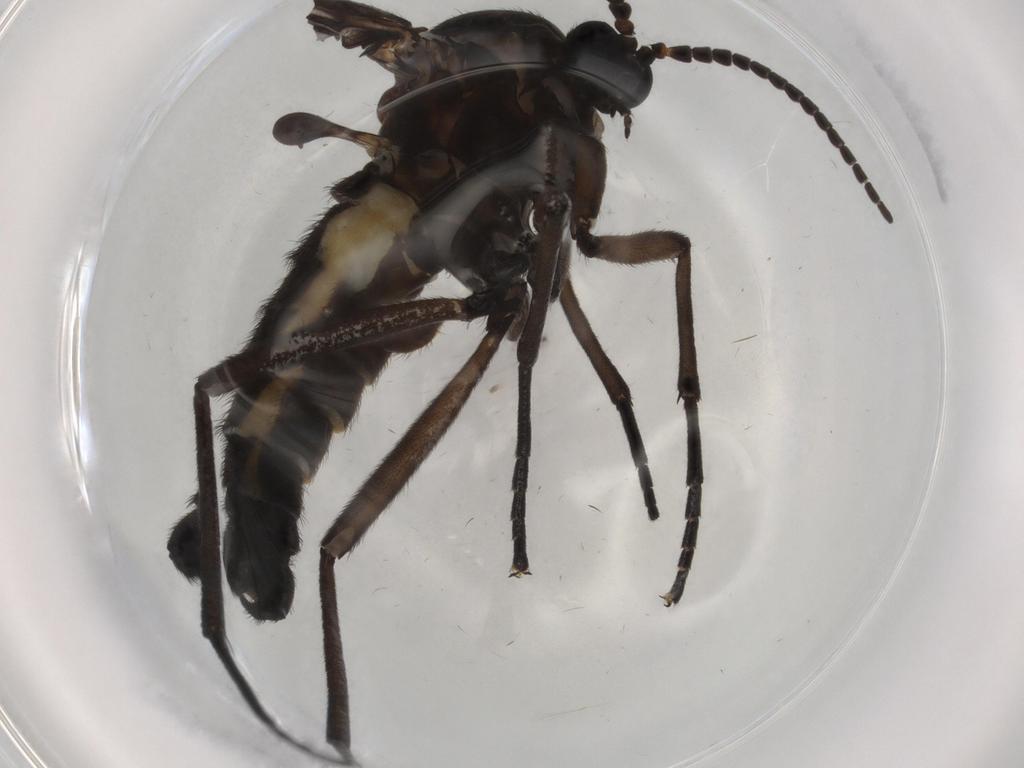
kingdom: Animalia
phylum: Arthropoda
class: Insecta
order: Diptera
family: Sciaridae
